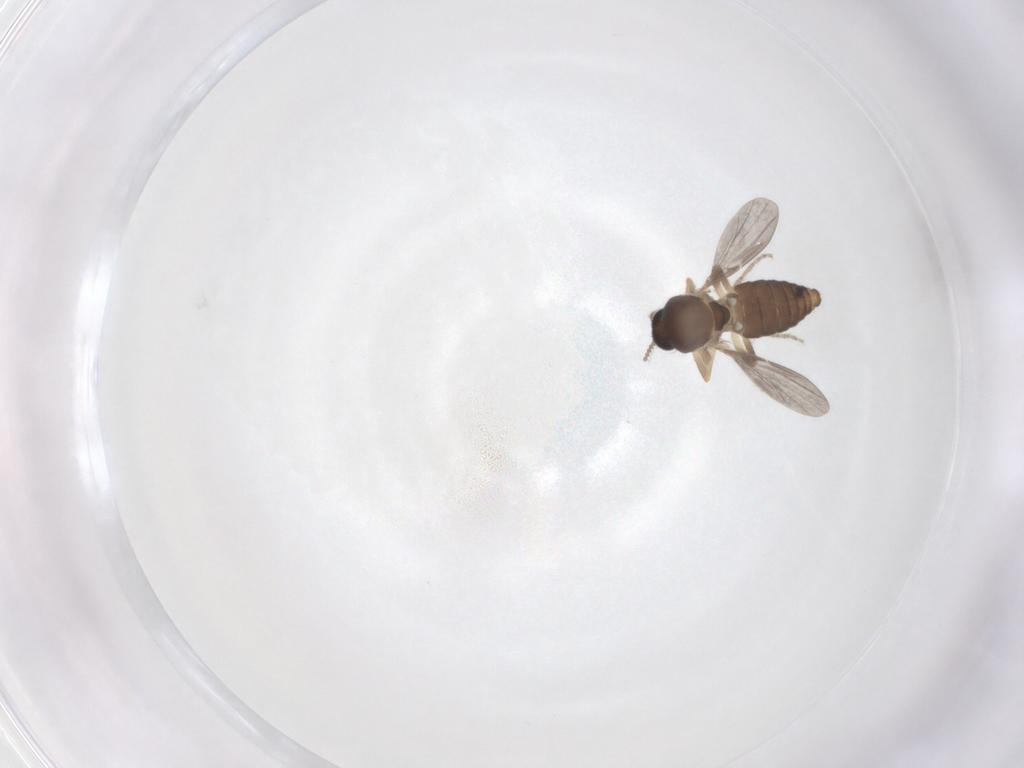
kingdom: Animalia
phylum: Arthropoda
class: Insecta
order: Diptera
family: Ceratopogonidae
